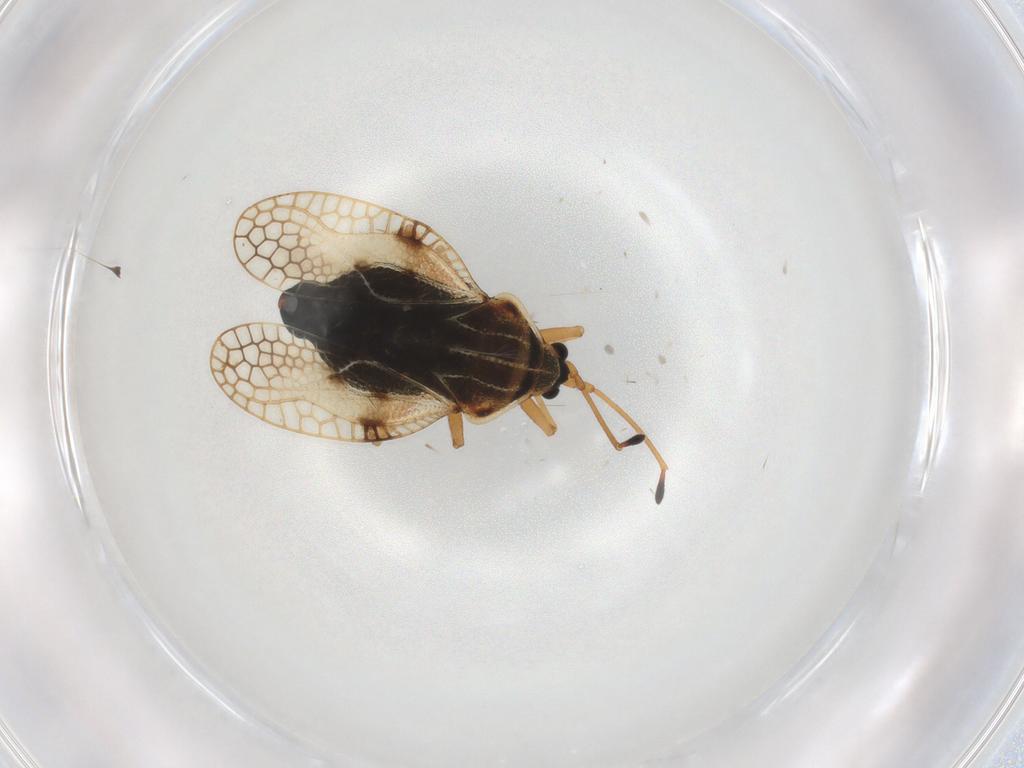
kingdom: Animalia
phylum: Arthropoda
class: Insecta
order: Hemiptera
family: Tingidae
